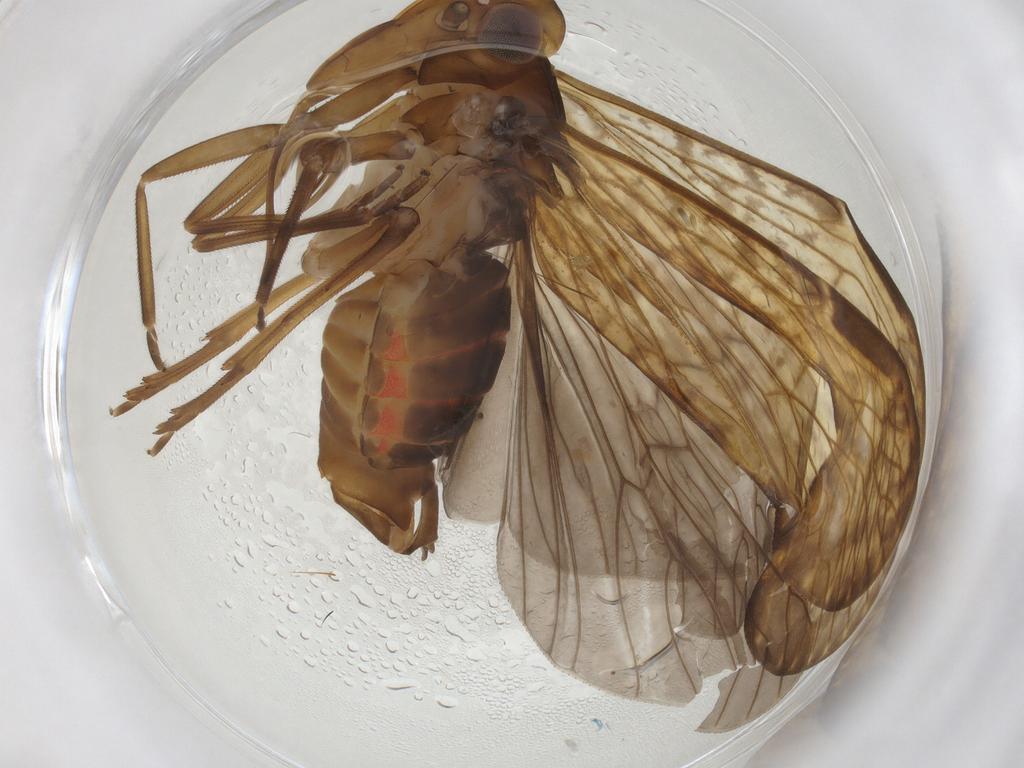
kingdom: Animalia
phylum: Arthropoda
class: Insecta
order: Hemiptera
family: Cixiidae
